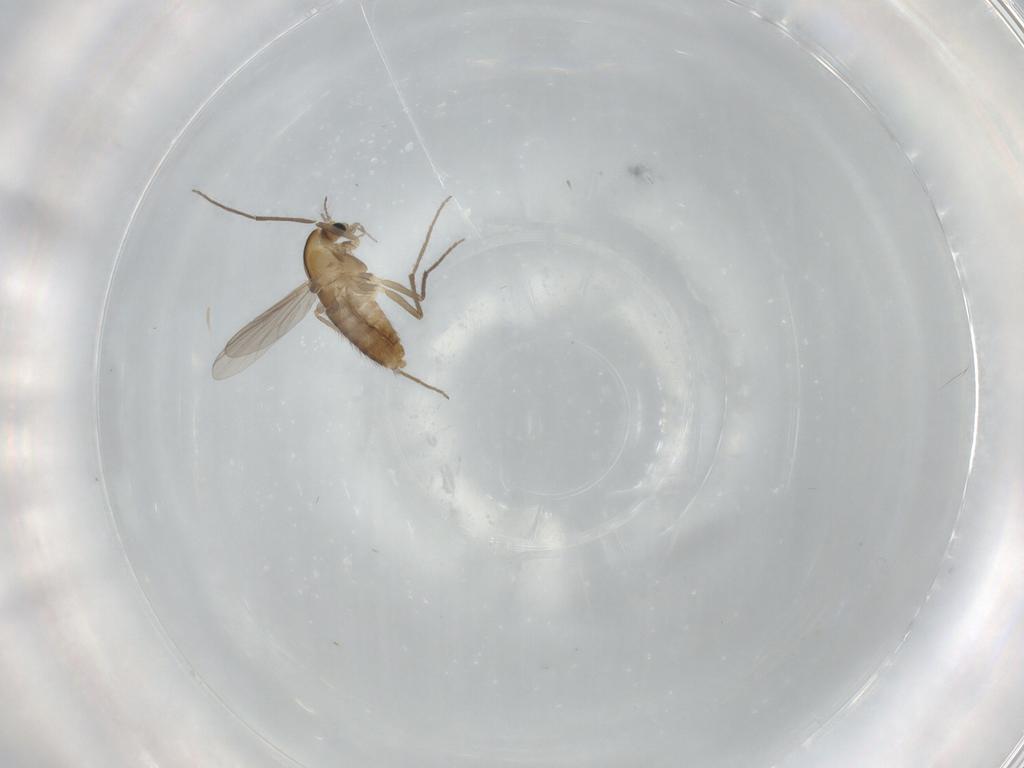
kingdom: Animalia
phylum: Arthropoda
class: Insecta
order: Diptera
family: Chironomidae
